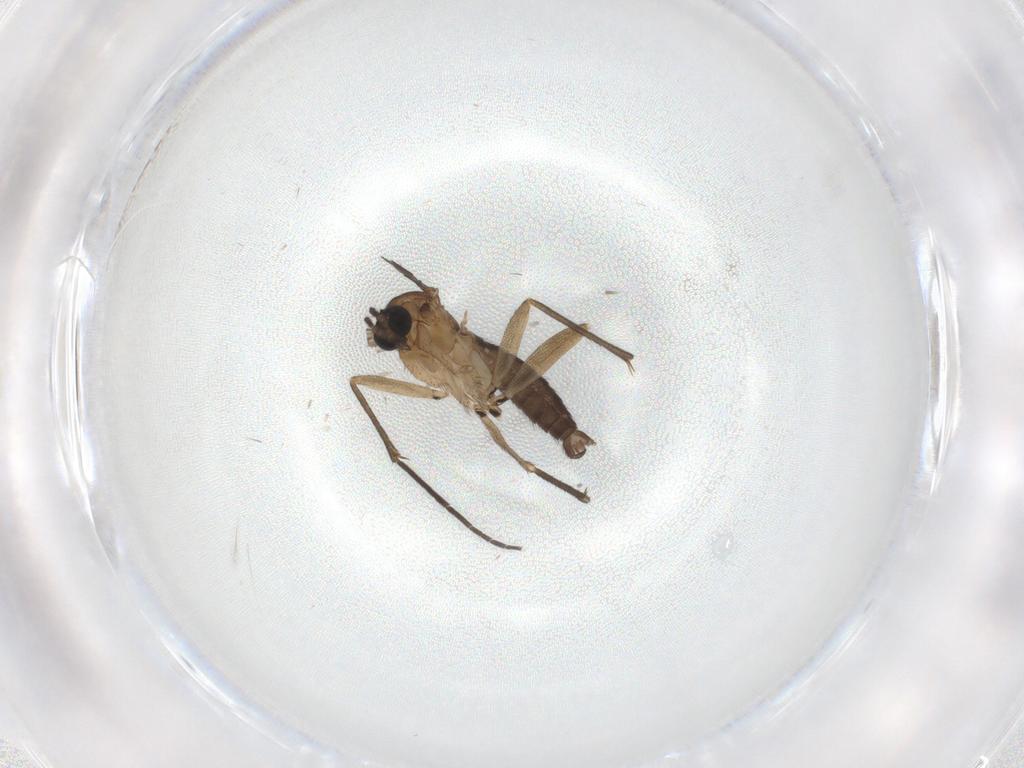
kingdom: Animalia
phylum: Arthropoda
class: Insecta
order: Diptera
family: Sciaridae
